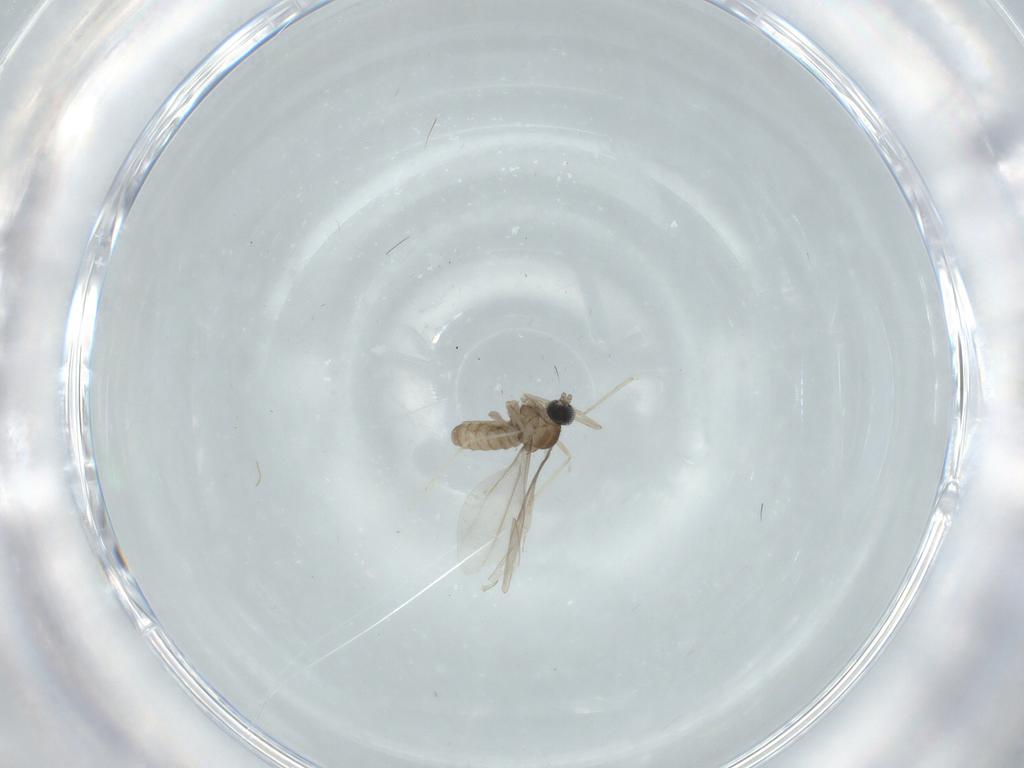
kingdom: Animalia
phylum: Arthropoda
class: Insecta
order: Diptera
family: Cecidomyiidae
